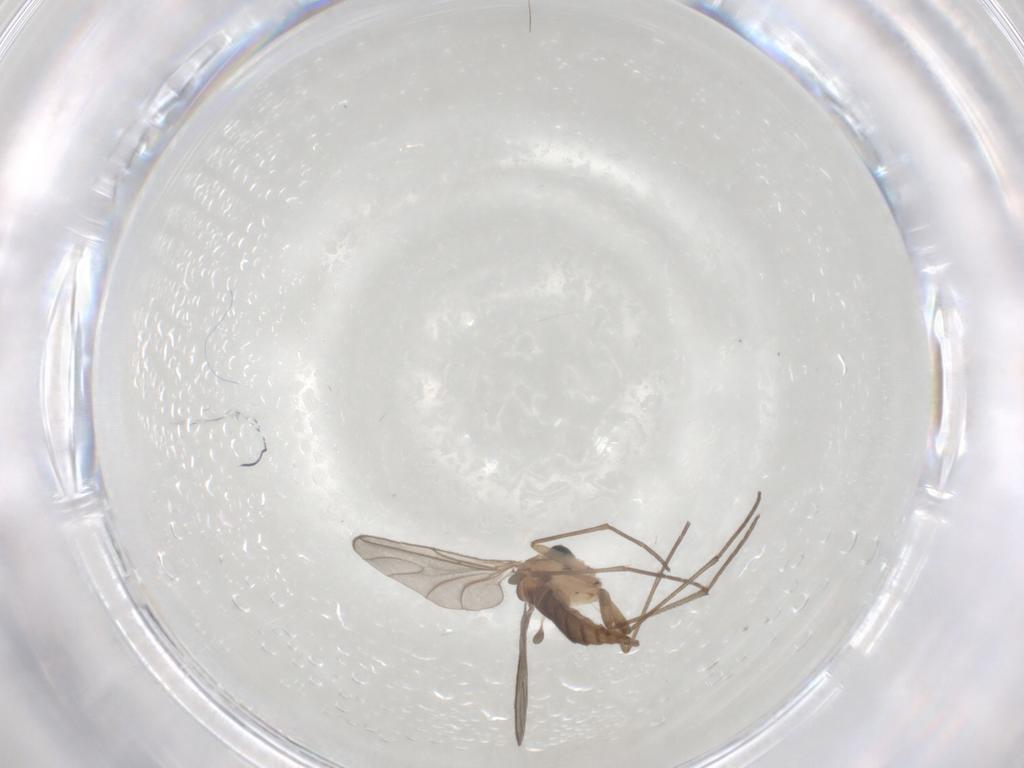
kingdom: Animalia
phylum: Arthropoda
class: Insecta
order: Diptera
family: Sciaridae
